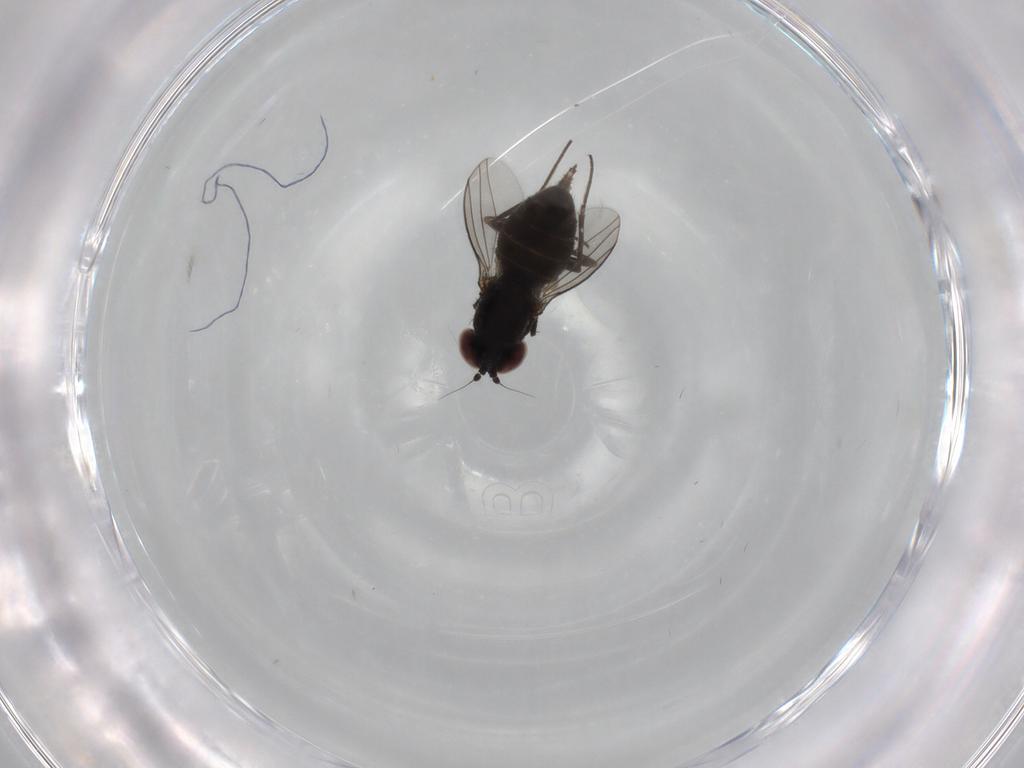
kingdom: Animalia
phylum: Arthropoda
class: Insecta
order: Diptera
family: Dolichopodidae
